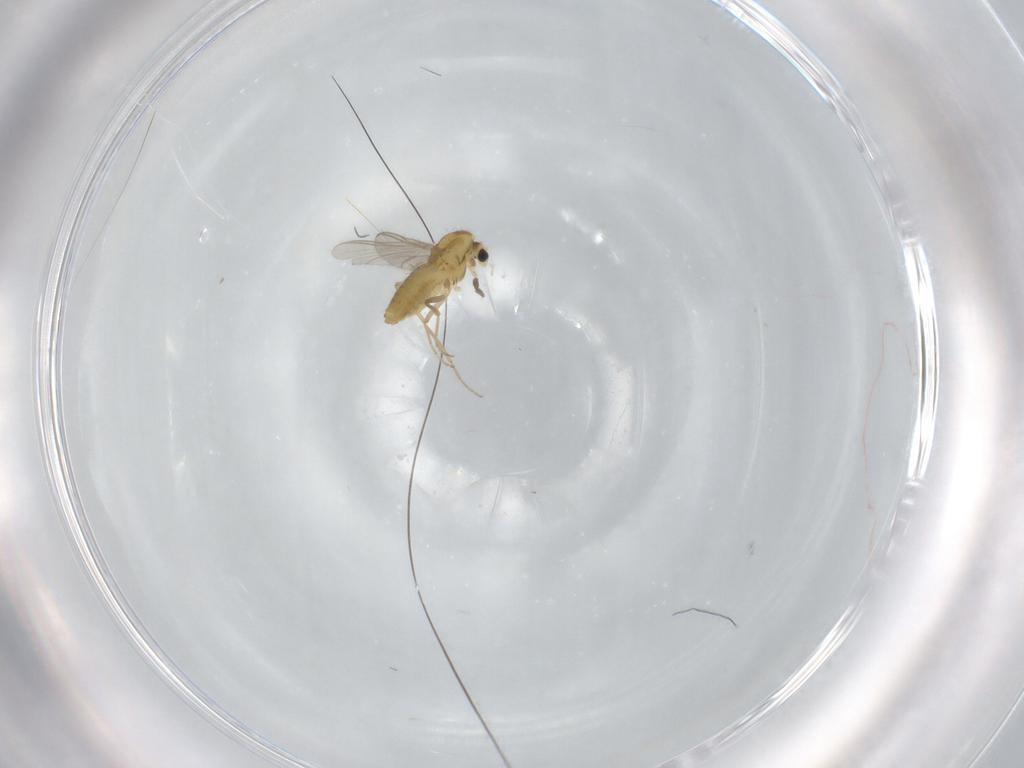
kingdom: Animalia
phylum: Arthropoda
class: Insecta
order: Diptera
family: Chironomidae
